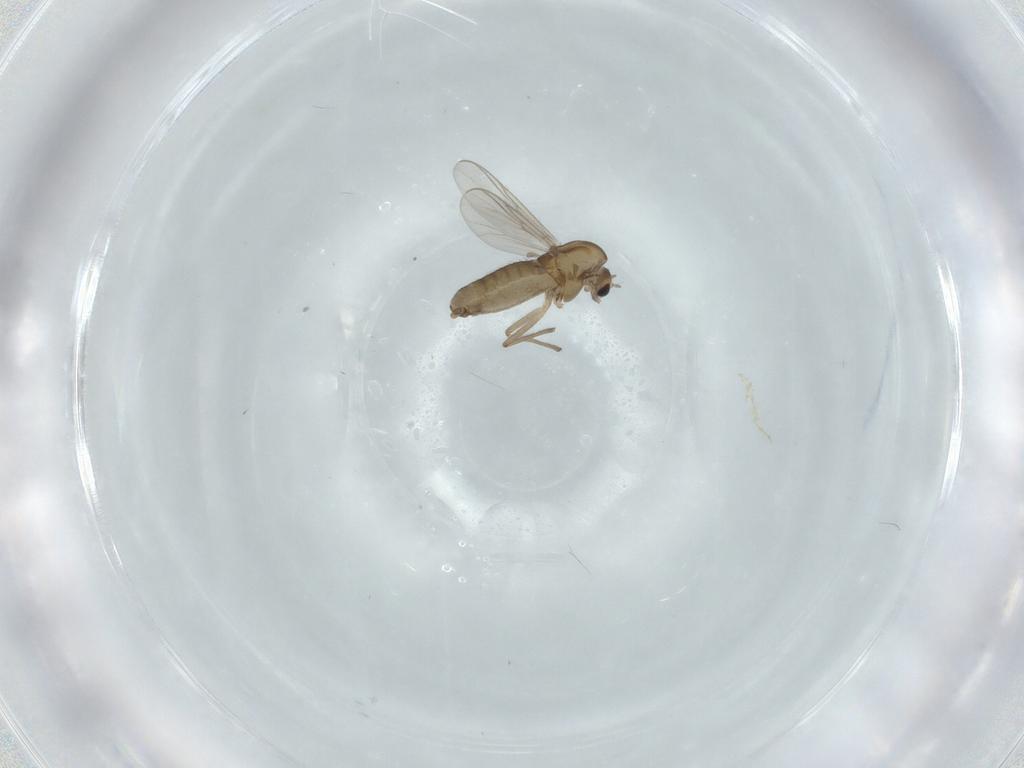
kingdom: Animalia
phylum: Arthropoda
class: Insecta
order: Diptera
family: Chironomidae
